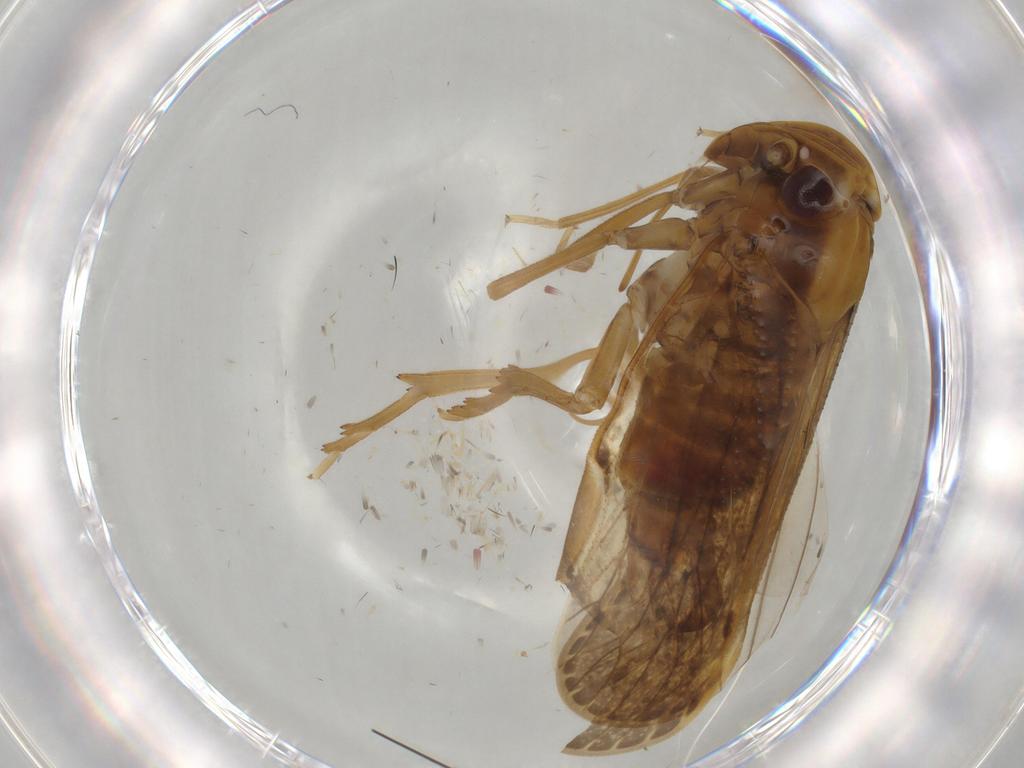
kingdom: Animalia
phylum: Arthropoda
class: Insecta
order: Hemiptera
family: Cixiidae
